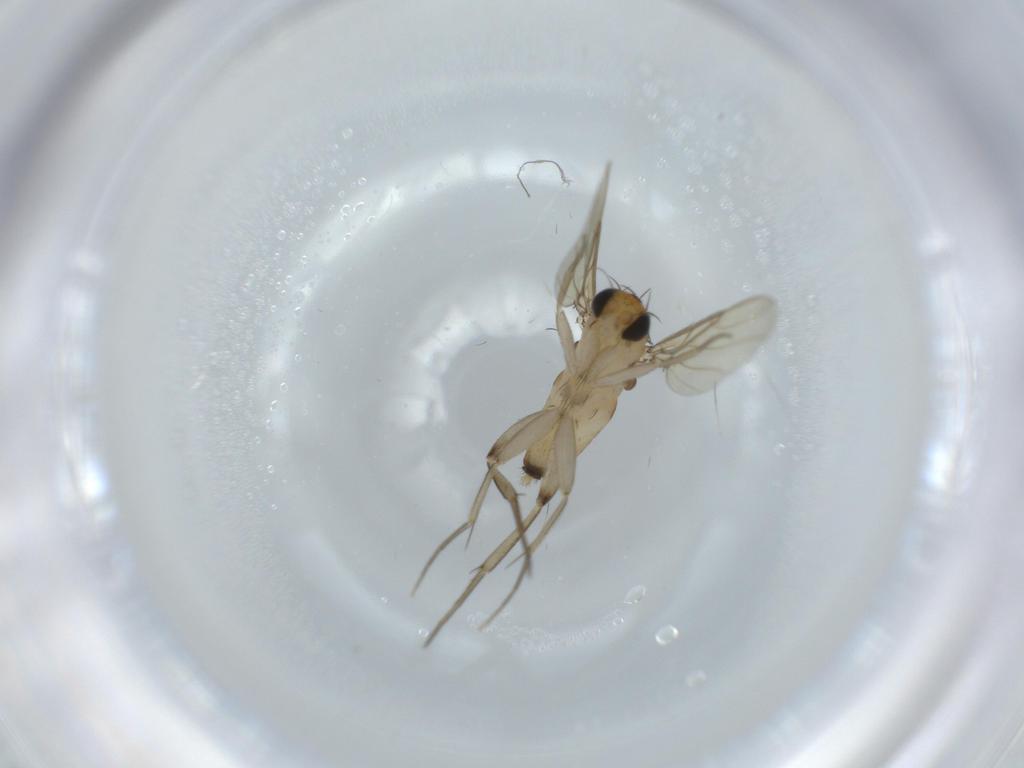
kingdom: Animalia
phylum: Arthropoda
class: Insecta
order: Diptera
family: Phoridae
